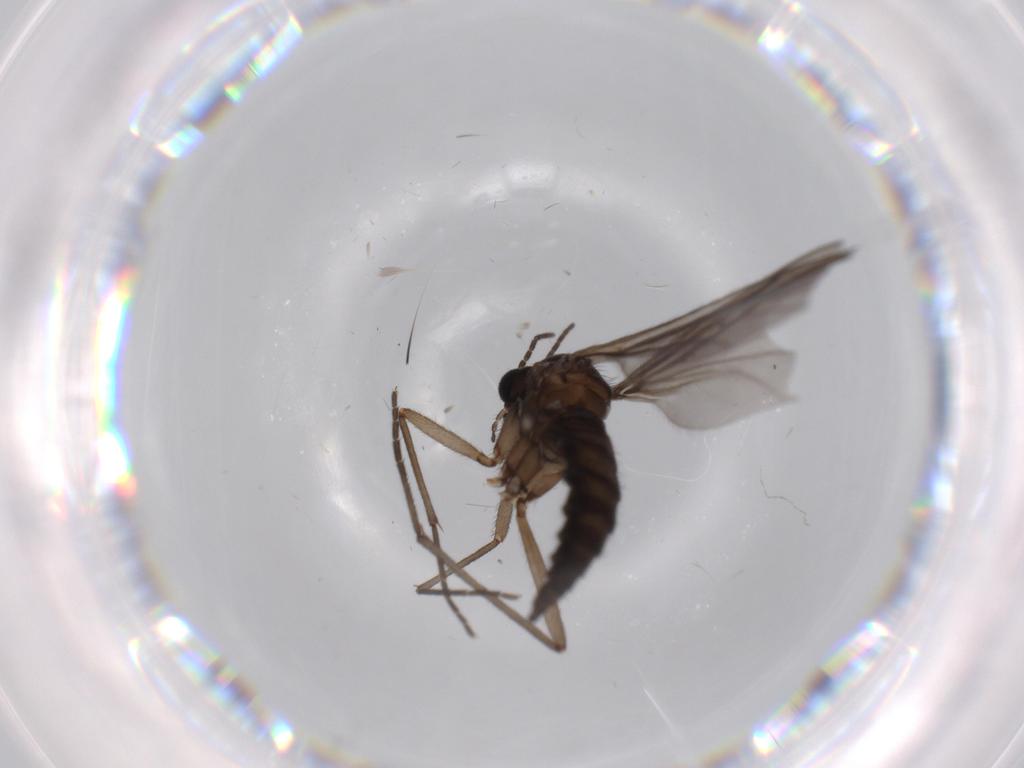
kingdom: Animalia
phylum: Arthropoda
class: Insecta
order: Diptera
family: Sciaridae
